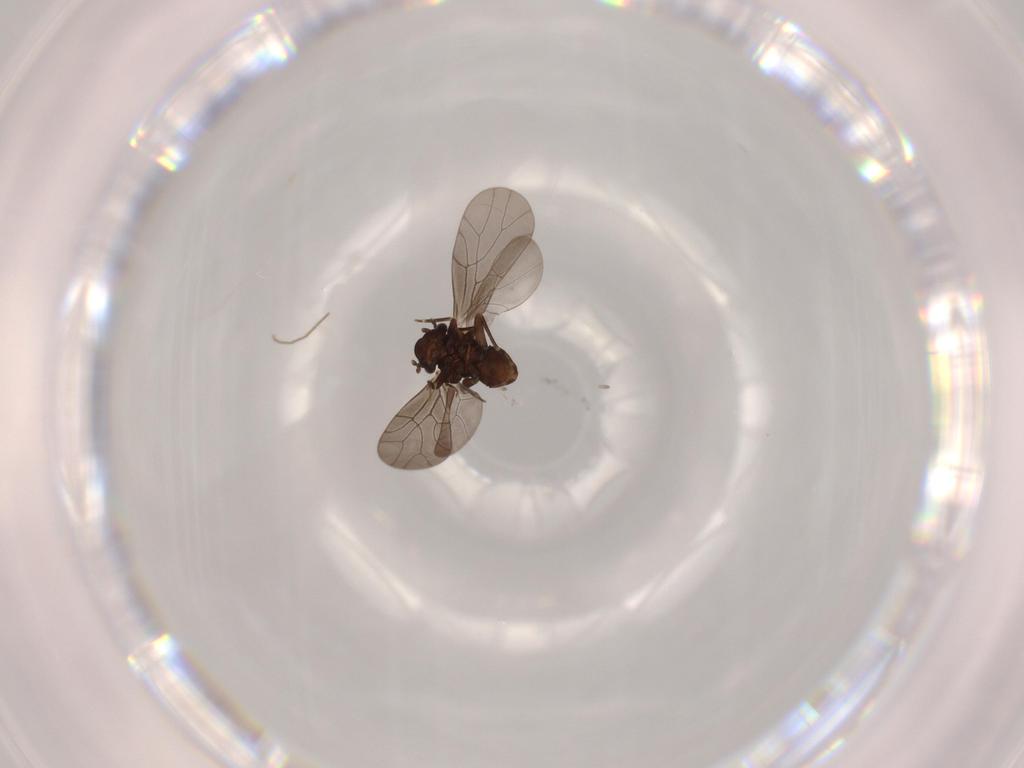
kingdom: Animalia
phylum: Arthropoda
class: Insecta
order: Psocodea
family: Lepidopsocidae
